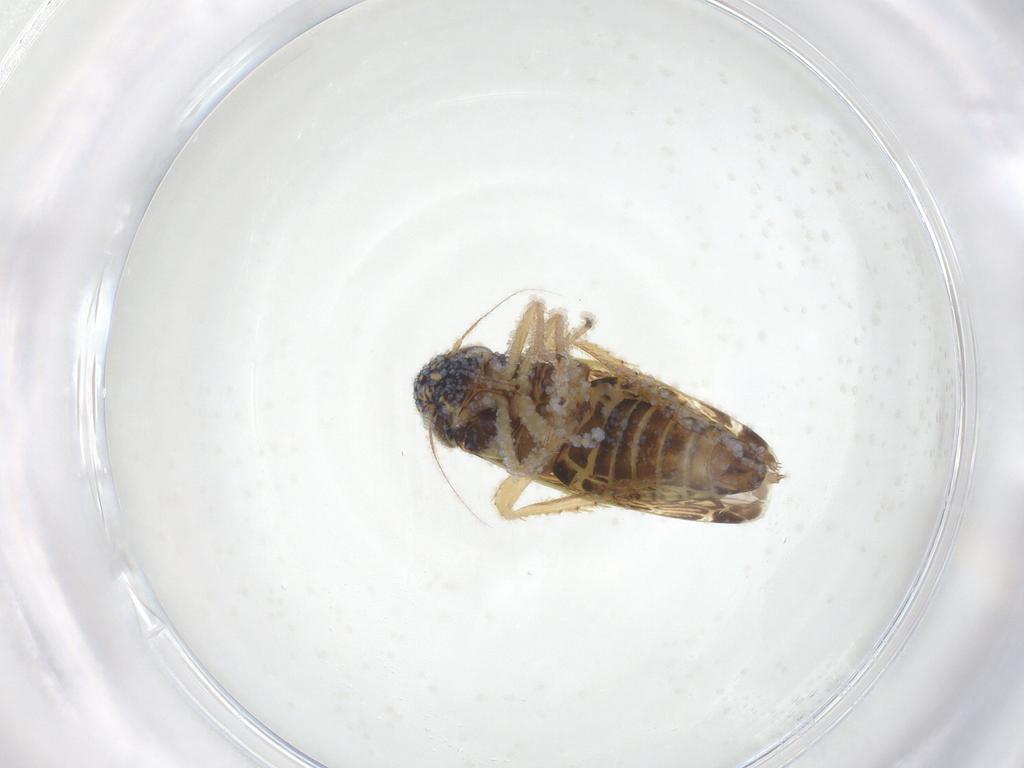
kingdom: Animalia
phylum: Arthropoda
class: Insecta
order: Hemiptera
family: Cicadellidae
